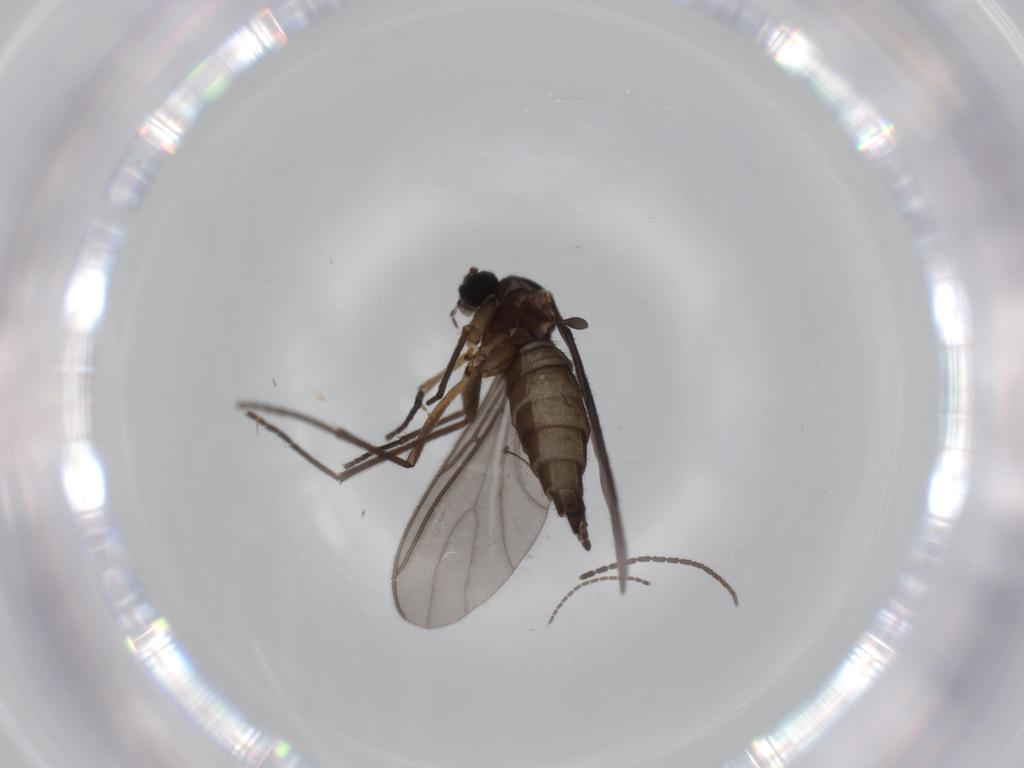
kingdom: Animalia
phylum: Arthropoda
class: Insecta
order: Diptera
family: Sciaridae
